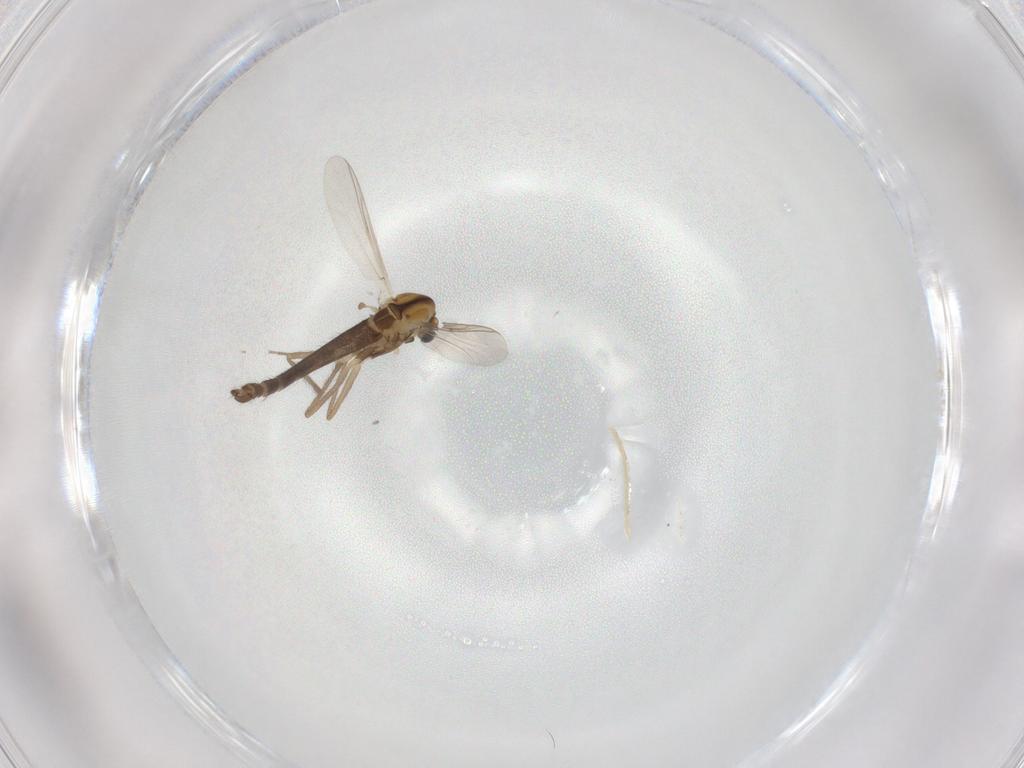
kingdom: Animalia
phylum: Arthropoda
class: Insecta
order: Diptera
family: Chironomidae
